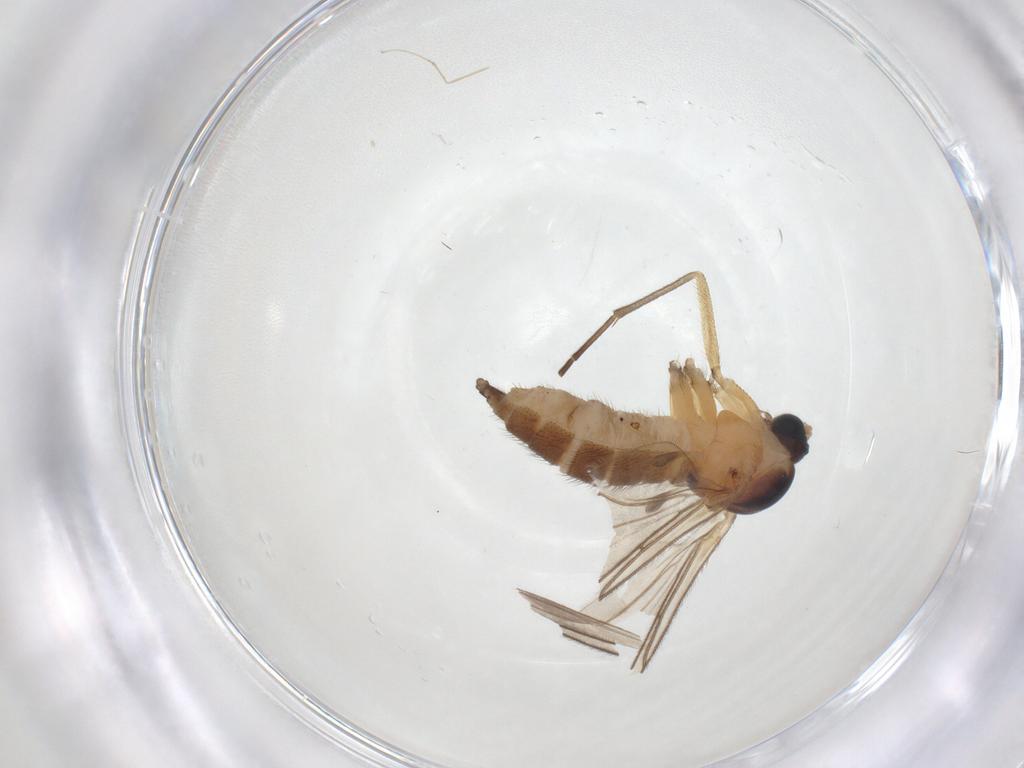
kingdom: Animalia
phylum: Arthropoda
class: Insecta
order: Diptera
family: Sciaridae
